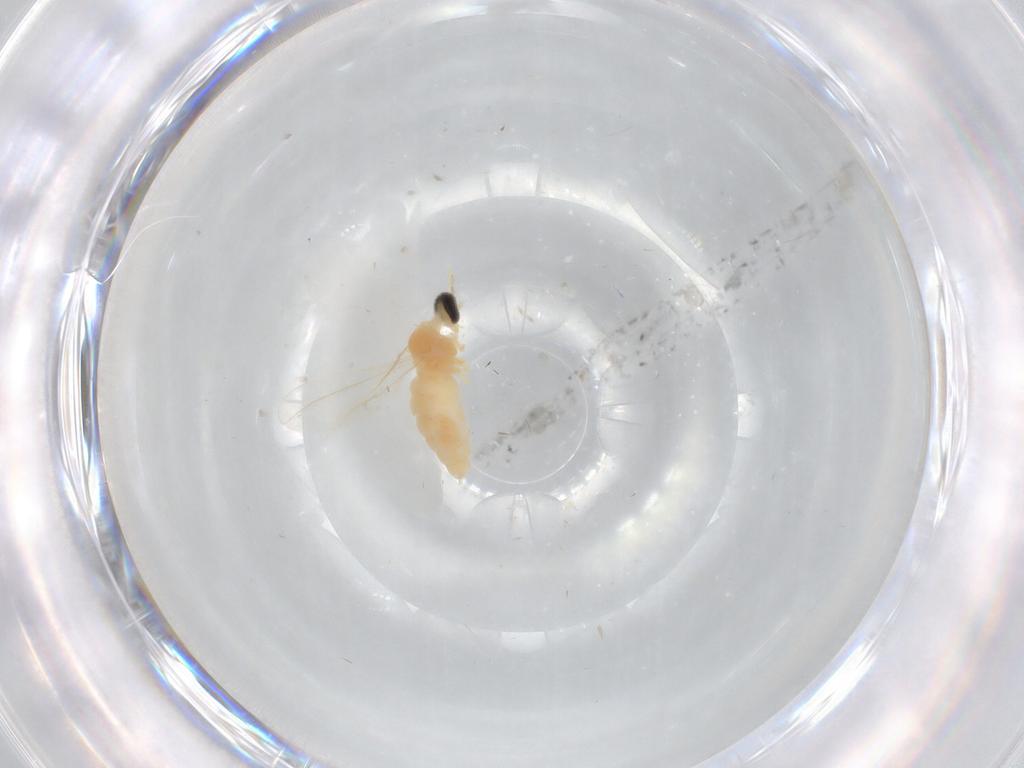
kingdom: Animalia
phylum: Arthropoda
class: Insecta
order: Diptera
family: Cecidomyiidae
